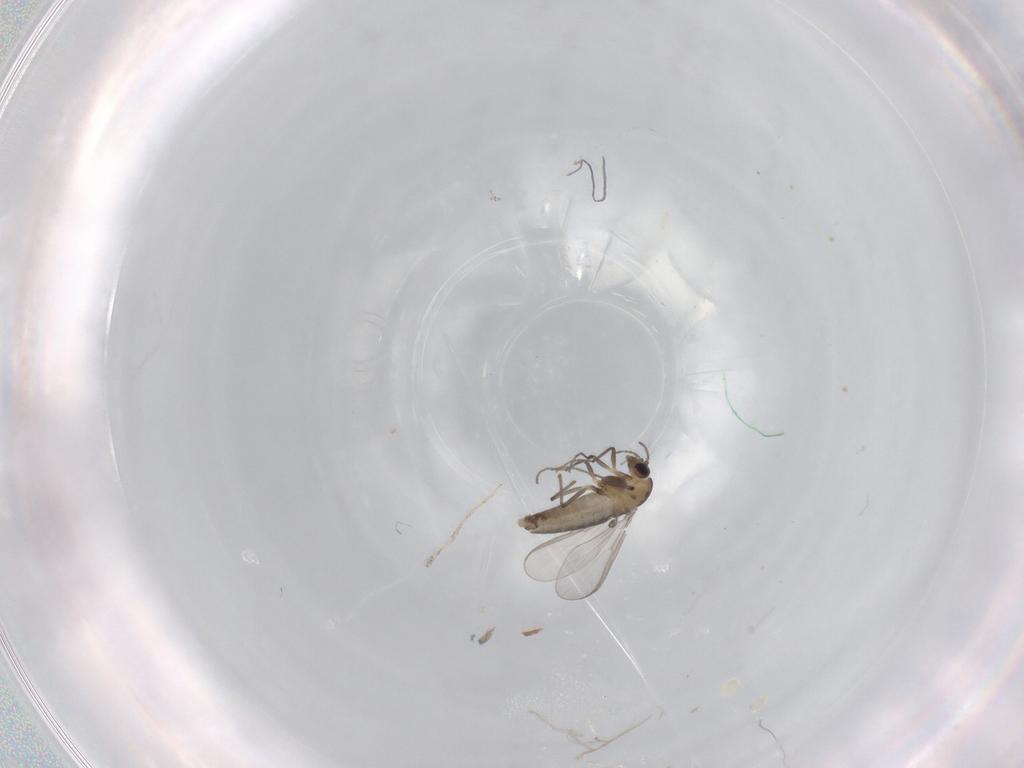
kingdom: Animalia
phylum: Arthropoda
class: Insecta
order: Diptera
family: Chironomidae
